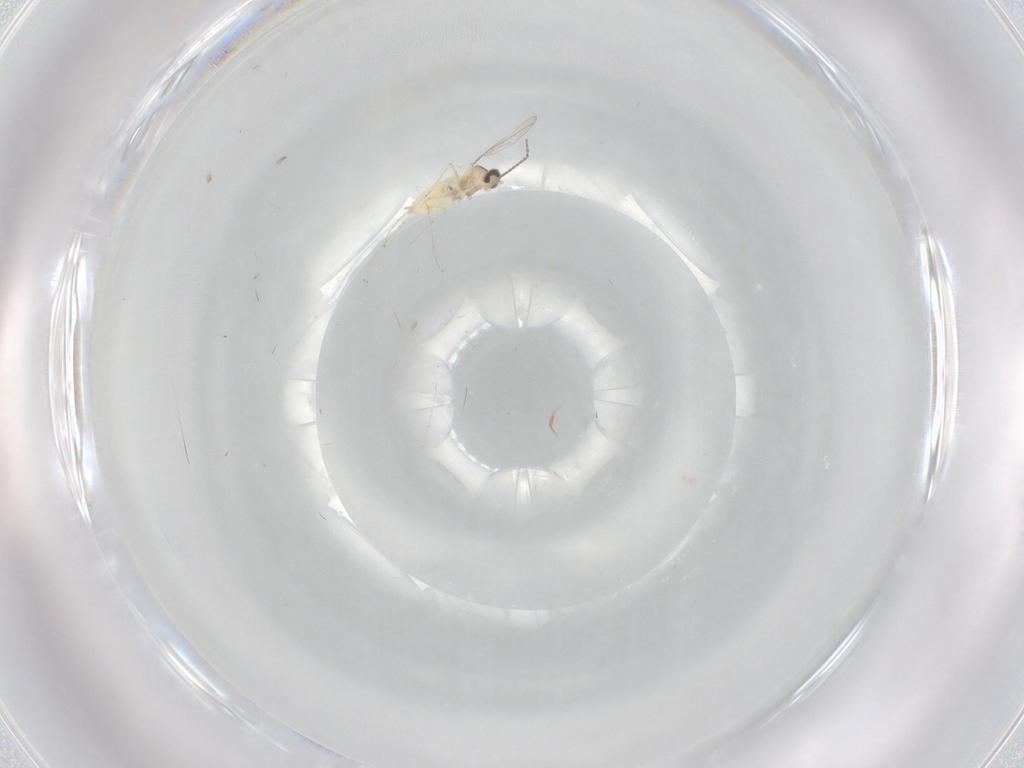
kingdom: Animalia
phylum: Arthropoda
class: Insecta
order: Diptera
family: Cecidomyiidae
